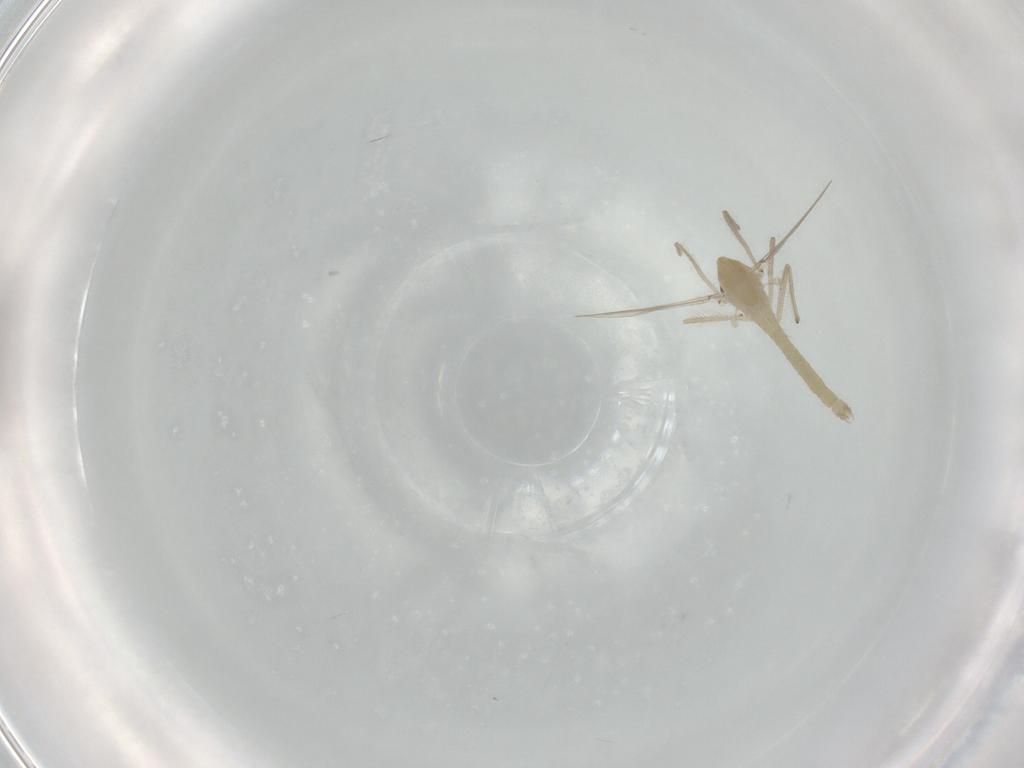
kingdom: Animalia
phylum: Arthropoda
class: Insecta
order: Diptera
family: Chironomidae
